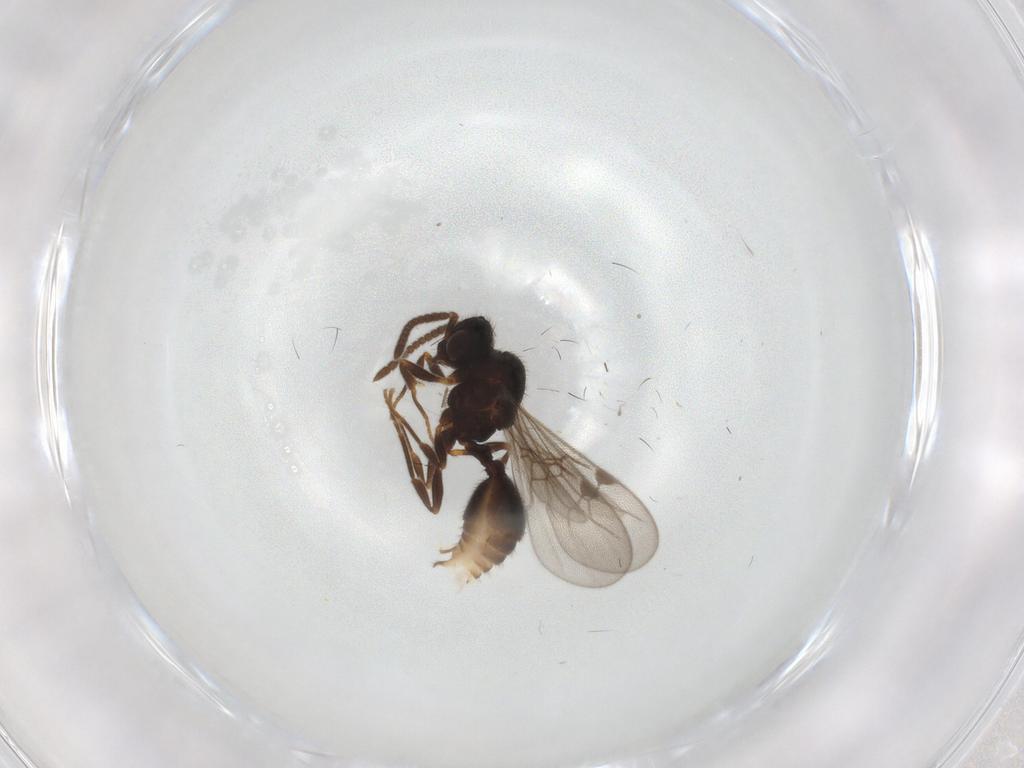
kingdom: Animalia
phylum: Arthropoda
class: Insecta
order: Hymenoptera
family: Formicidae
